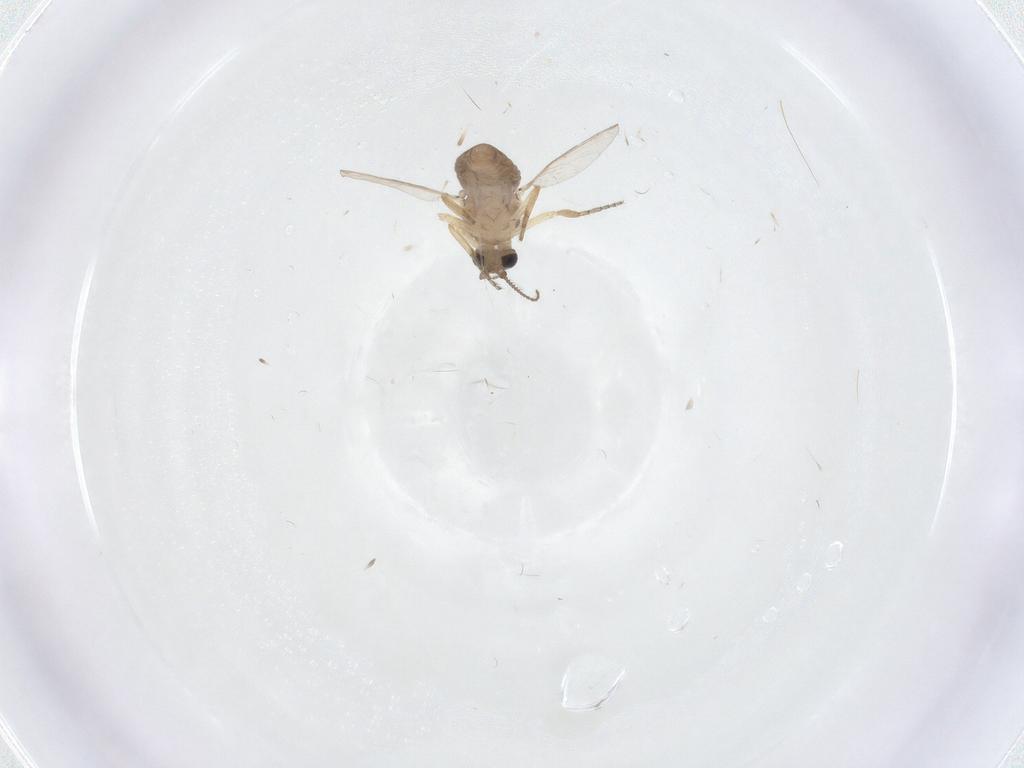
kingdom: Animalia
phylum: Arthropoda
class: Insecta
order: Diptera
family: Ceratopogonidae
